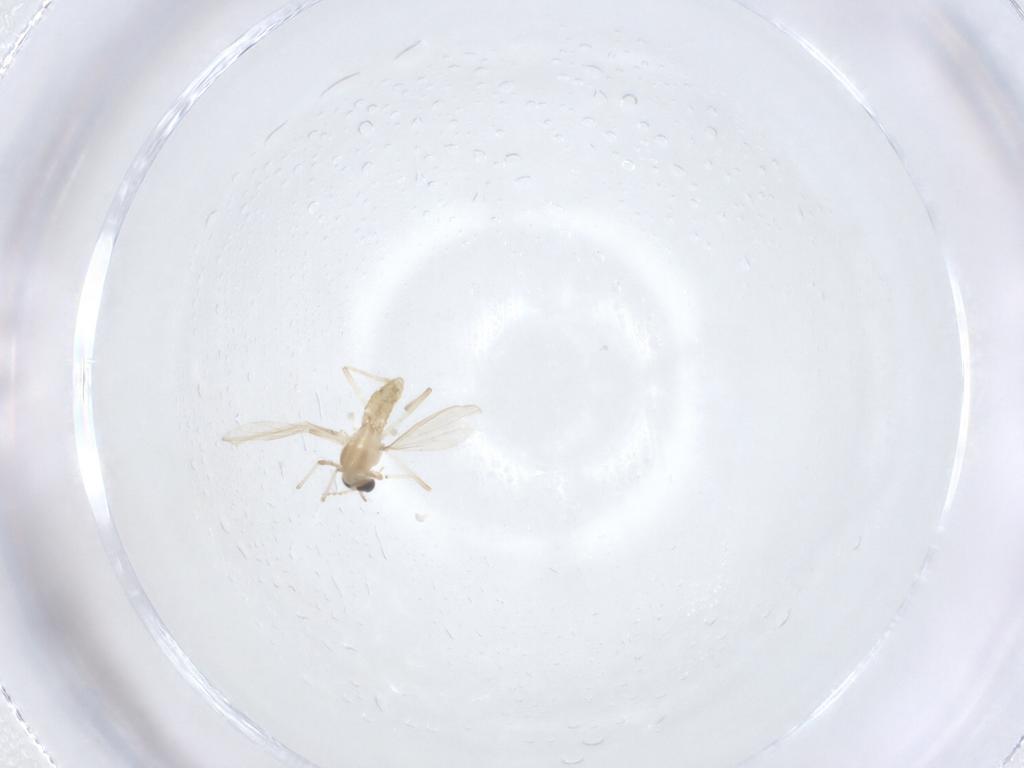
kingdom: Animalia
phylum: Arthropoda
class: Insecta
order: Diptera
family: Chironomidae
